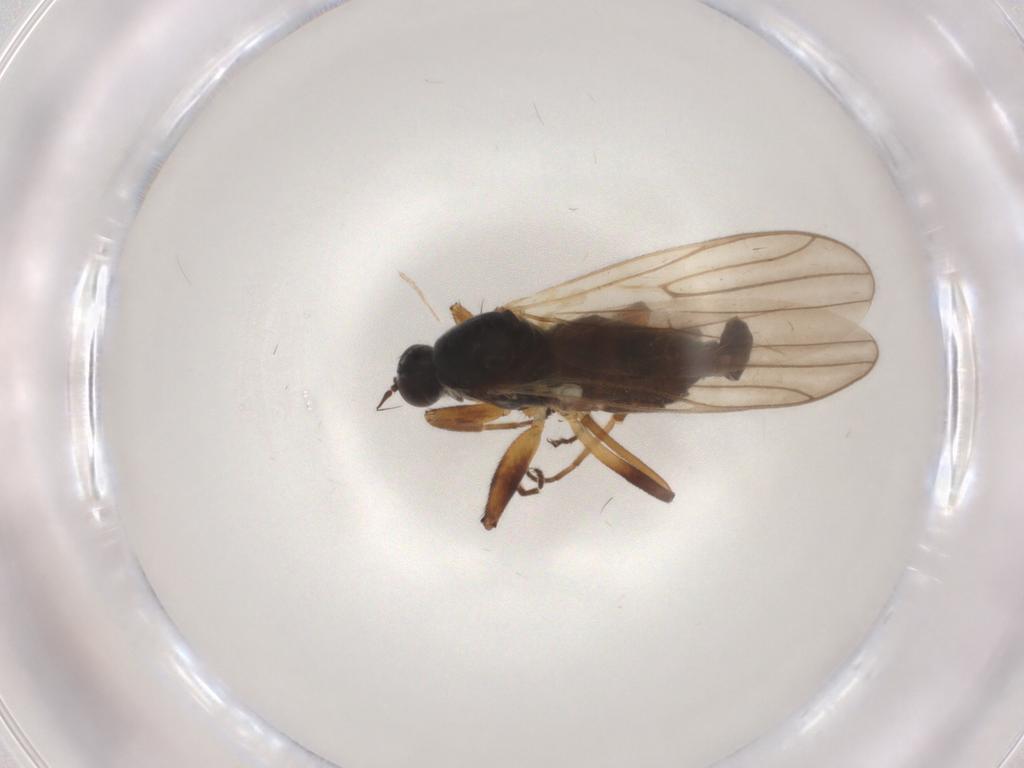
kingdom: Animalia
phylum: Arthropoda
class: Insecta
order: Diptera
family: Hybotidae
